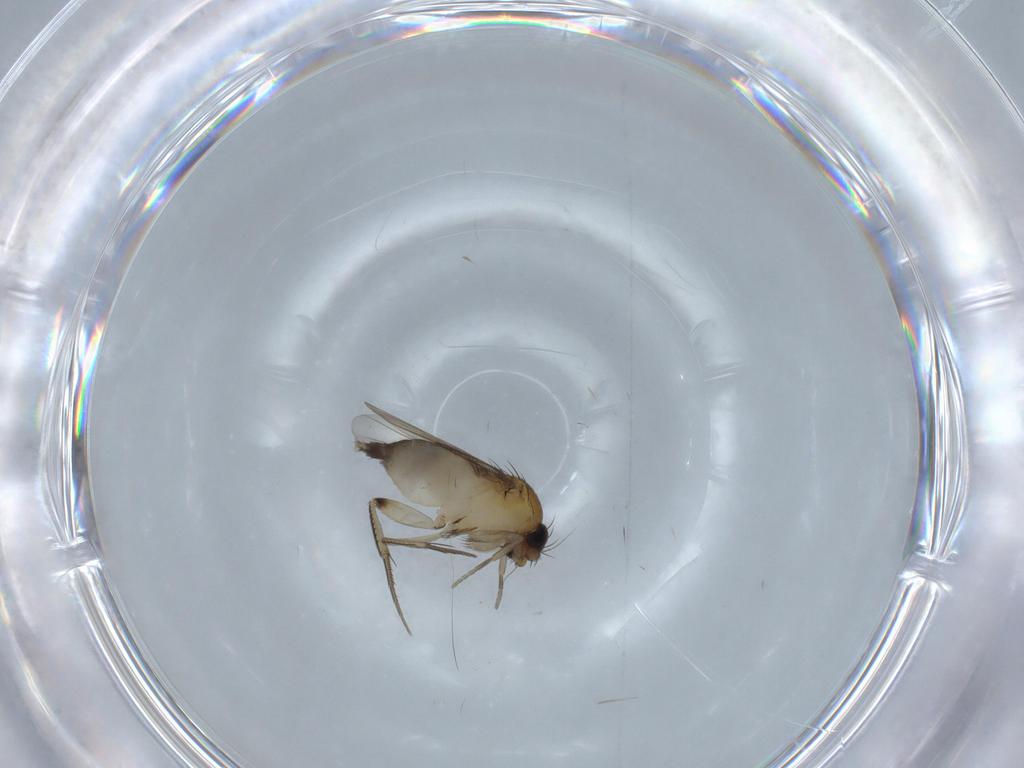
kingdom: Animalia
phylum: Arthropoda
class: Insecta
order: Diptera
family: Phoridae
